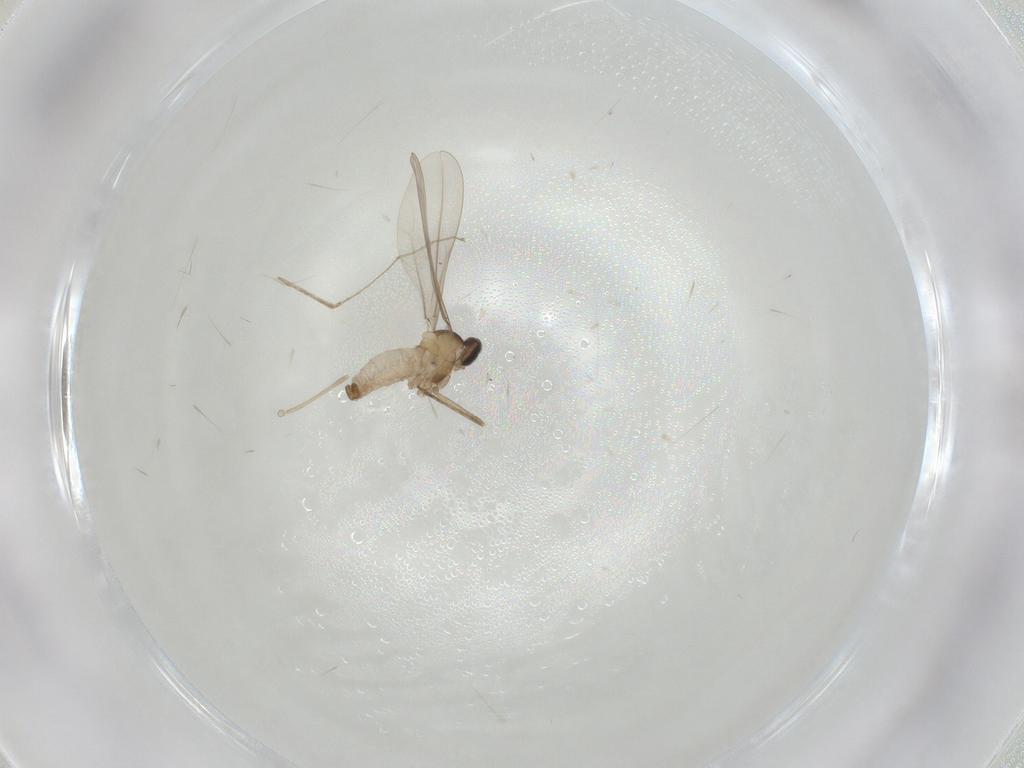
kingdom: Animalia
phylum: Arthropoda
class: Insecta
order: Diptera
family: Cecidomyiidae
